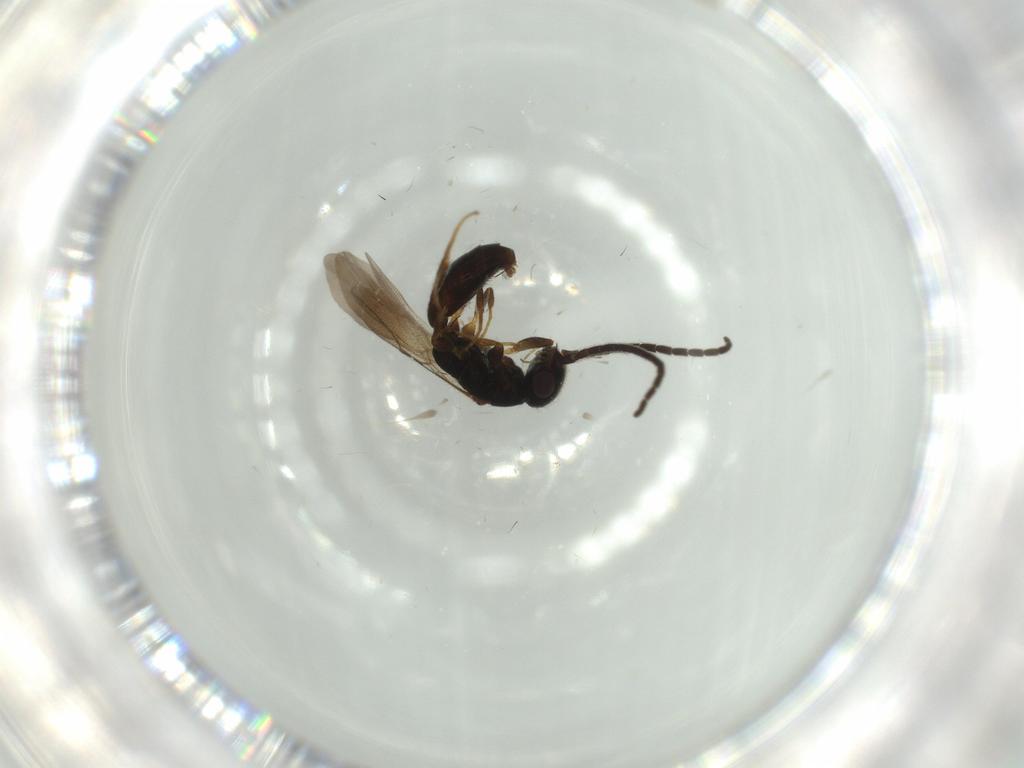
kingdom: Animalia
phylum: Arthropoda
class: Insecta
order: Hymenoptera
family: Bethylidae
